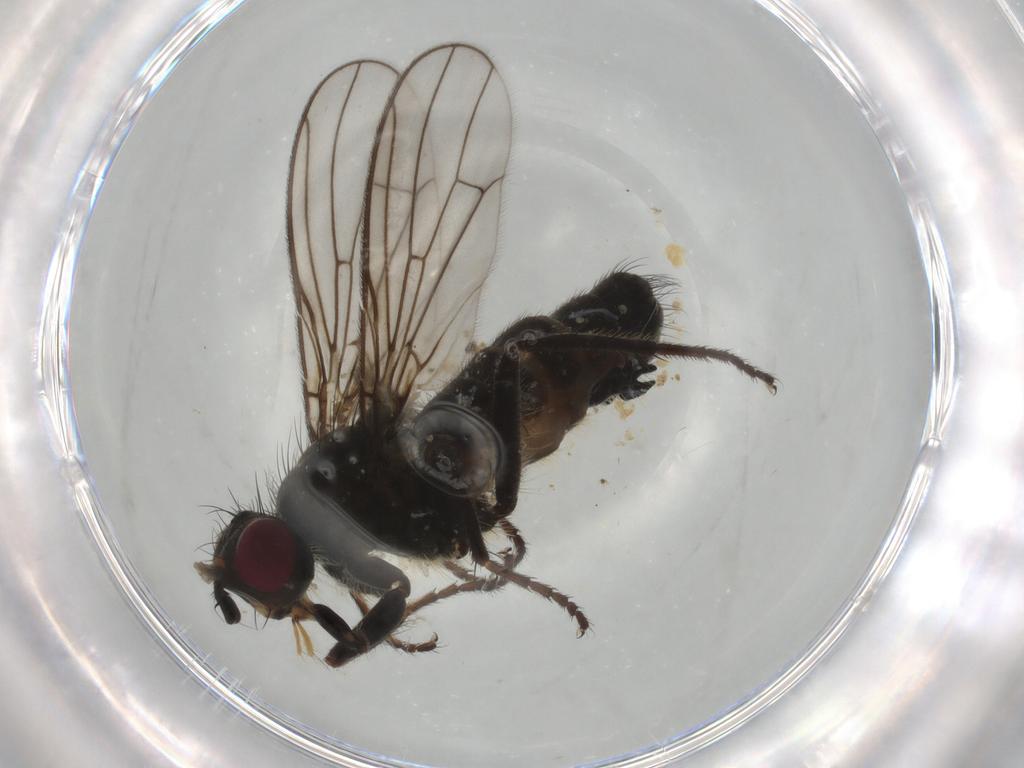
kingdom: Animalia
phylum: Arthropoda
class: Insecta
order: Diptera
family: Scathophagidae
